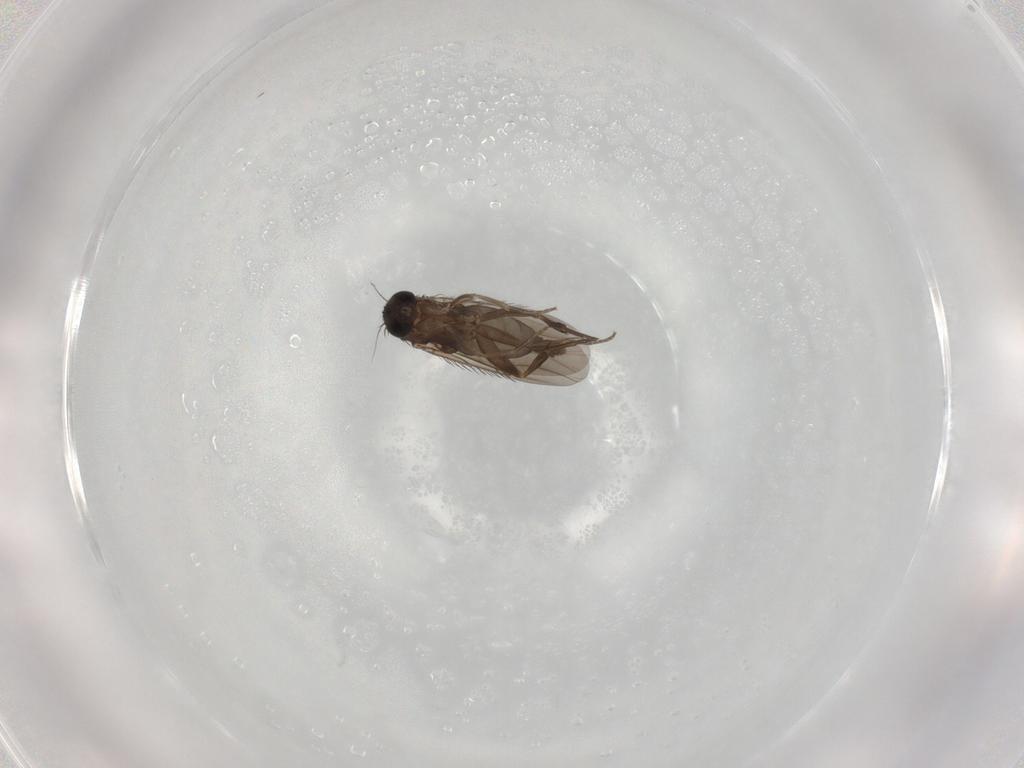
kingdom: Animalia
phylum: Arthropoda
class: Insecta
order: Diptera
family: Phoridae
